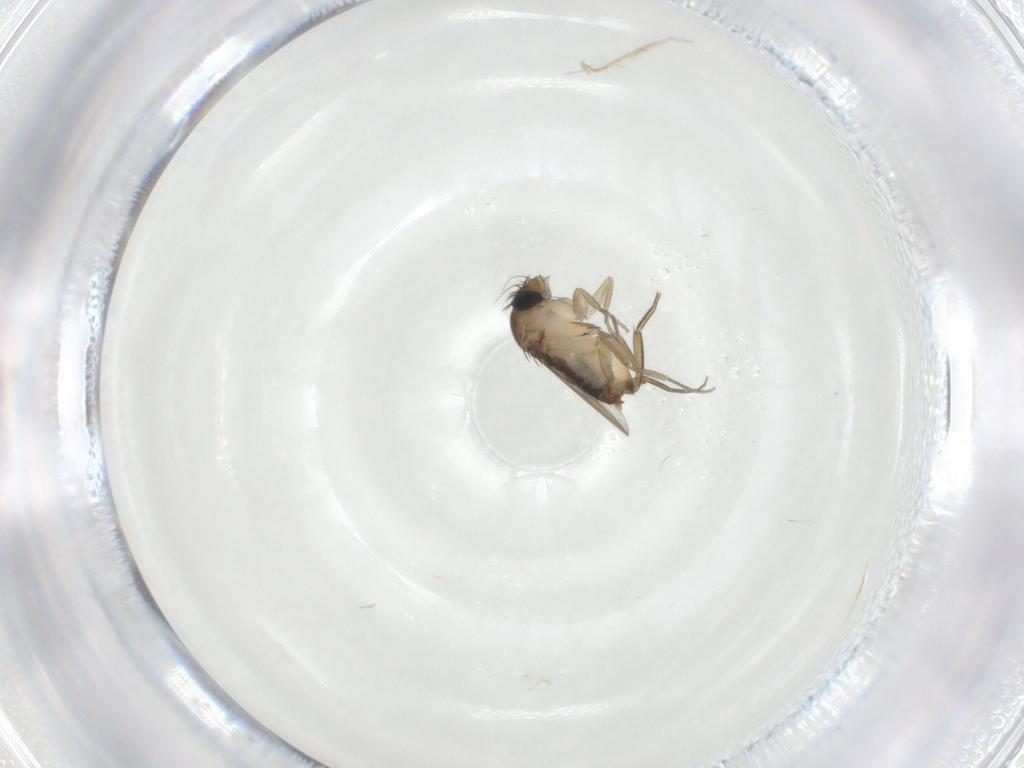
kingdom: Animalia
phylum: Arthropoda
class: Insecta
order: Diptera
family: Phoridae
